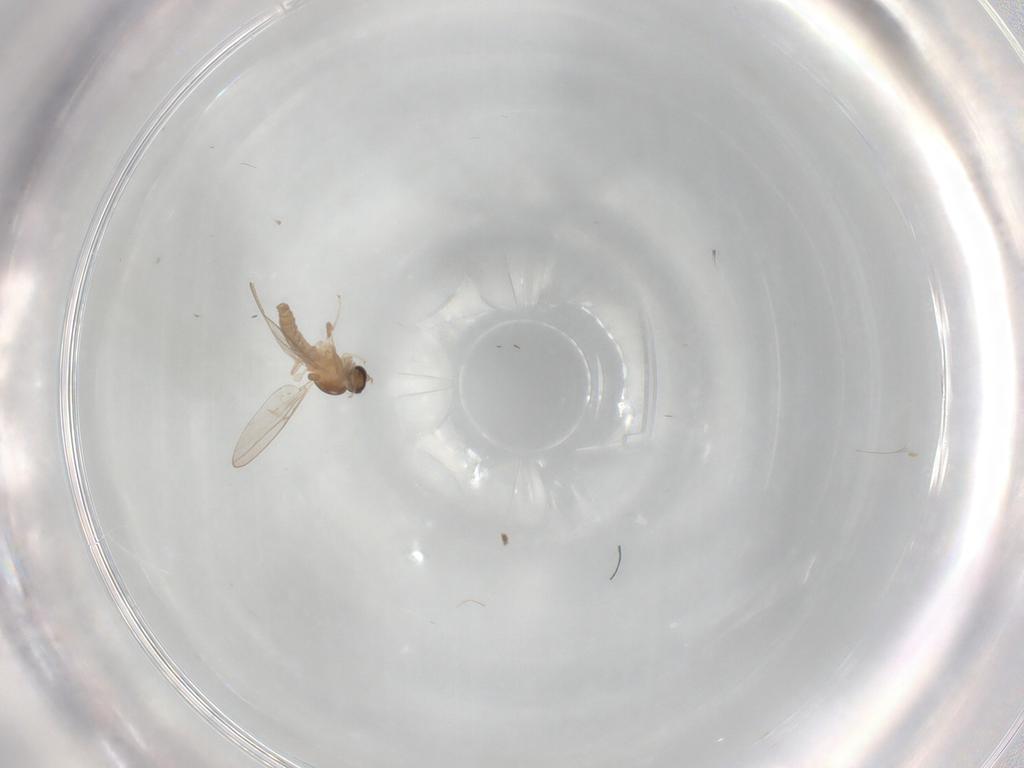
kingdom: Animalia
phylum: Arthropoda
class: Insecta
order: Diptera
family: Cecidomyiidae
